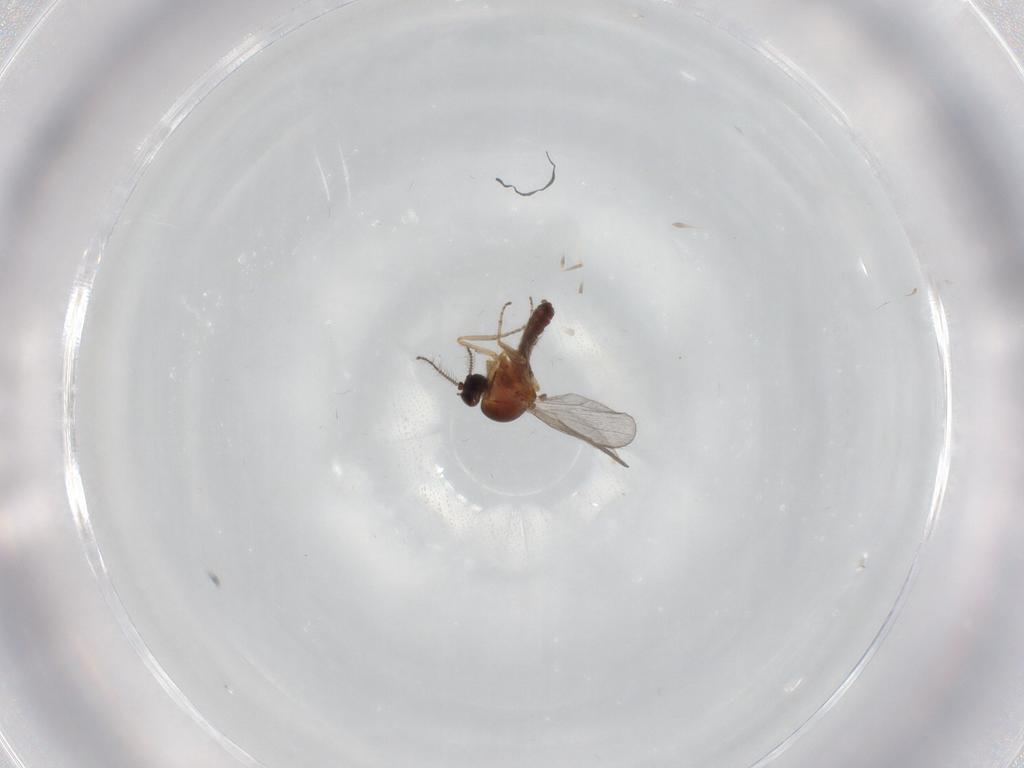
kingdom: Animalia
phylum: Arthropoda
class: Insecta
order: Diptera
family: Ceratopogonidae
